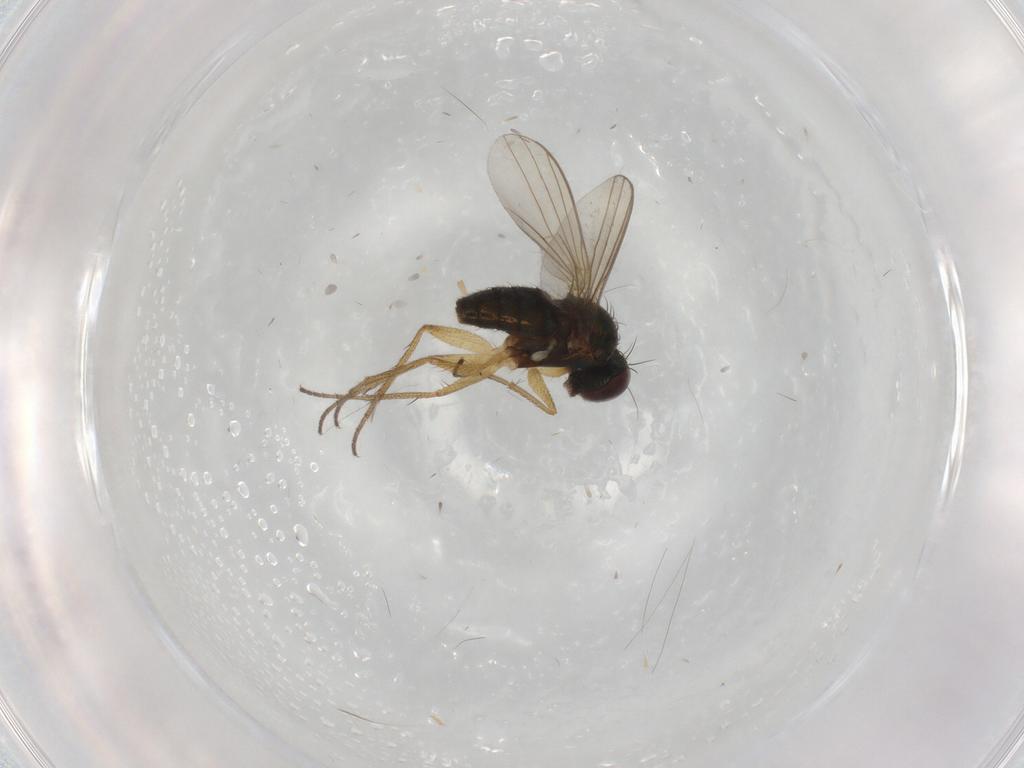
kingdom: Animalia
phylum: Arthropoda
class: Insecta
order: Diptera
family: Dolichopodidae
